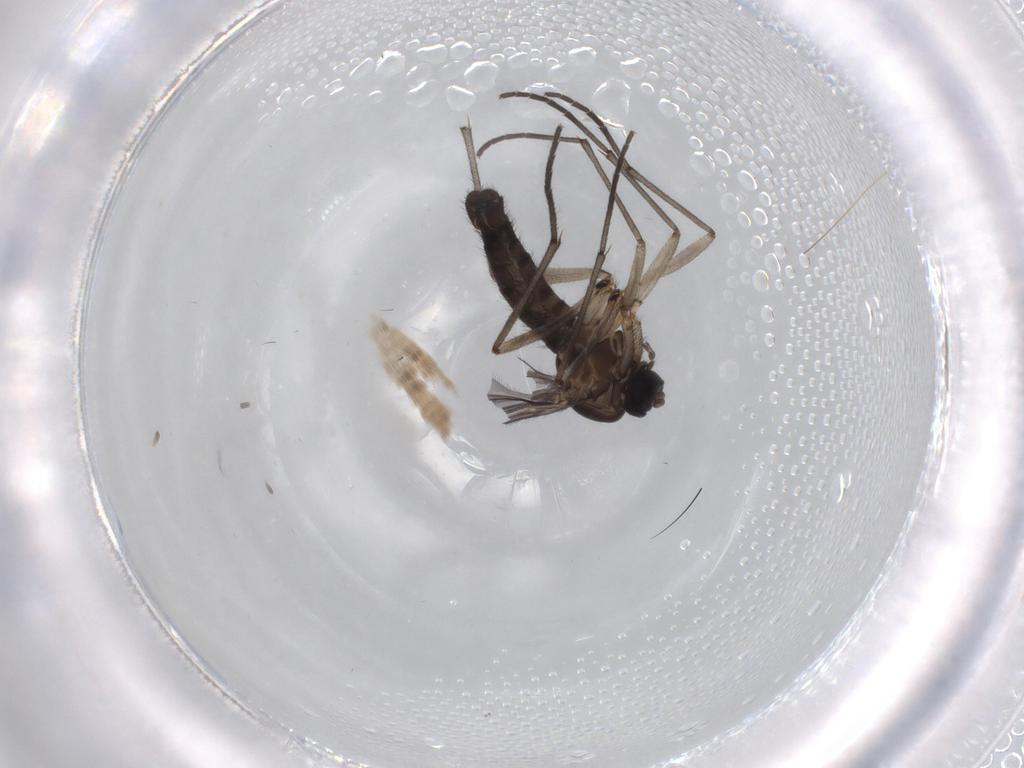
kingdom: Animalia
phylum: Arthropoda
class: Insecta
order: Diptera
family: Sciaridae
